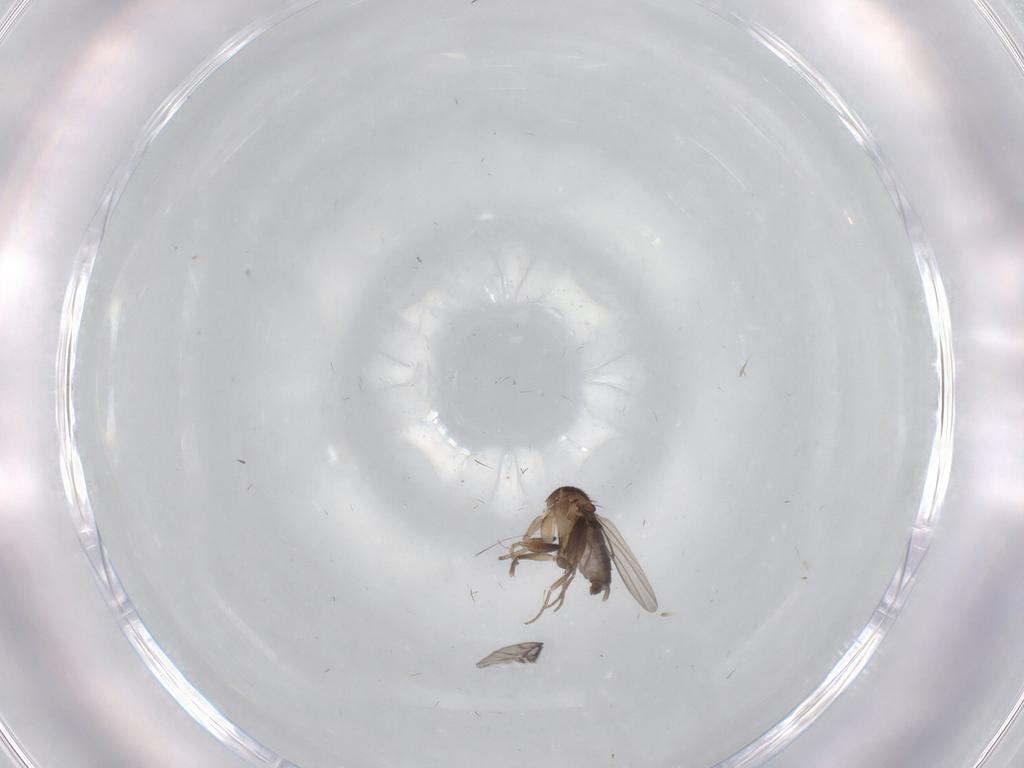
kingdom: Animalia
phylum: Arthropoda
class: Insecta
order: Diptera
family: Phoridae
